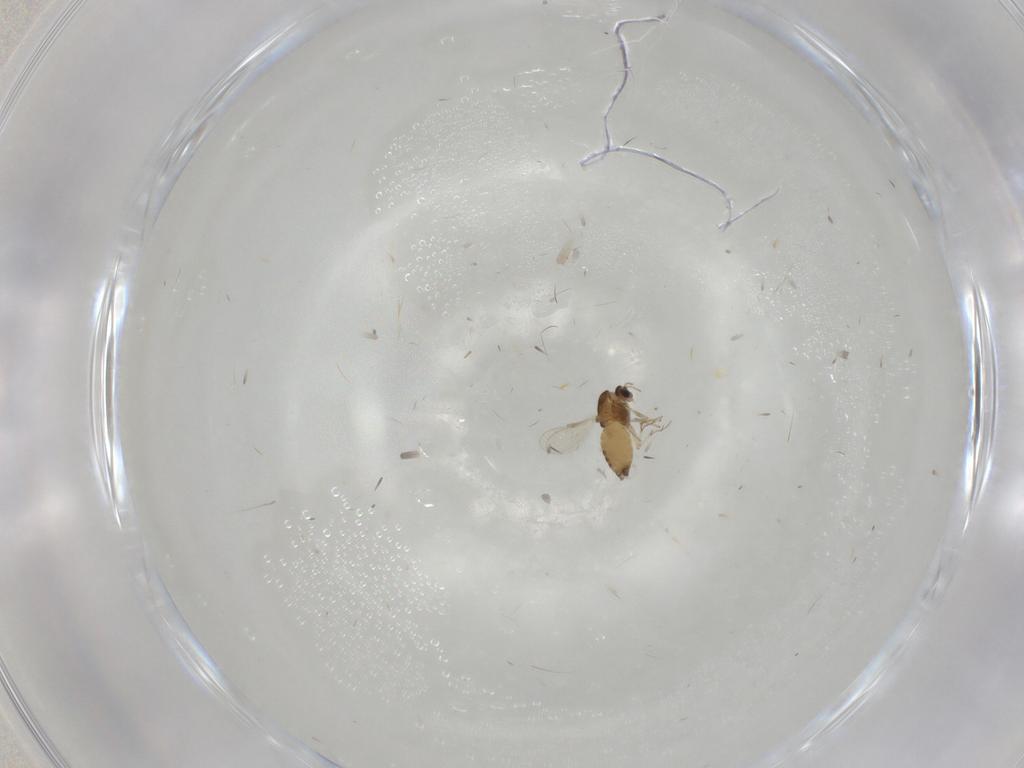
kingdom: Animalia
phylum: Arthropoda
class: Insecta
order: Diptera
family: Chironomidae
